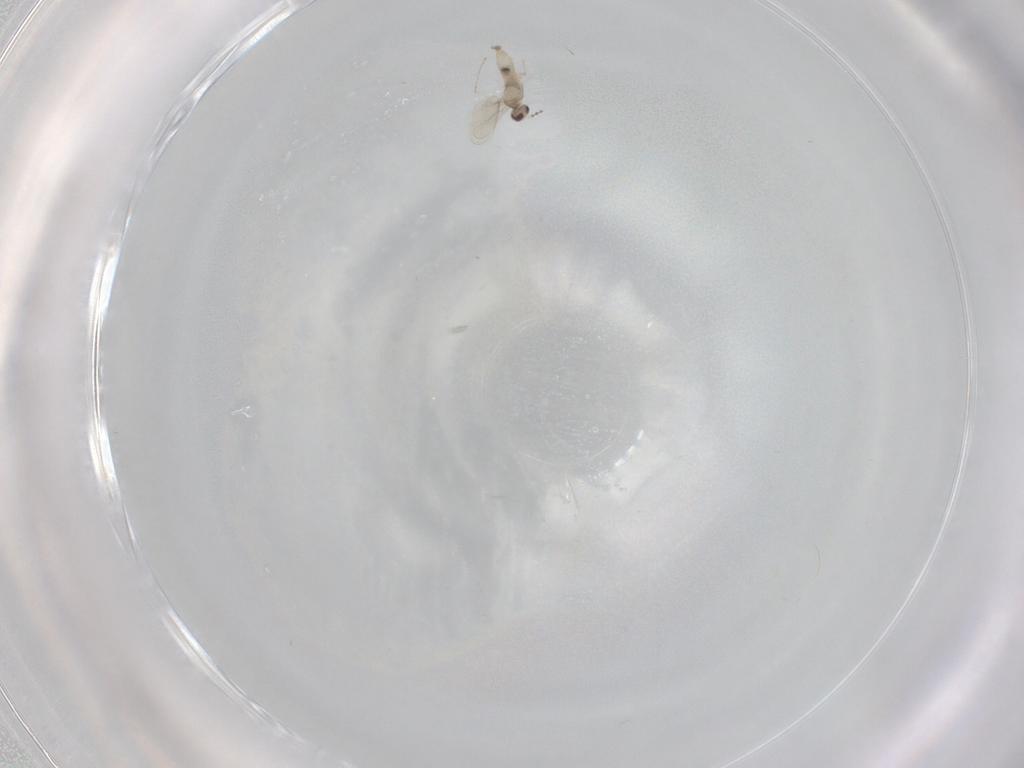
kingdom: Animalia
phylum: Arthropoda
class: Insecta
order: Diptera
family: Cecidomyiidae
